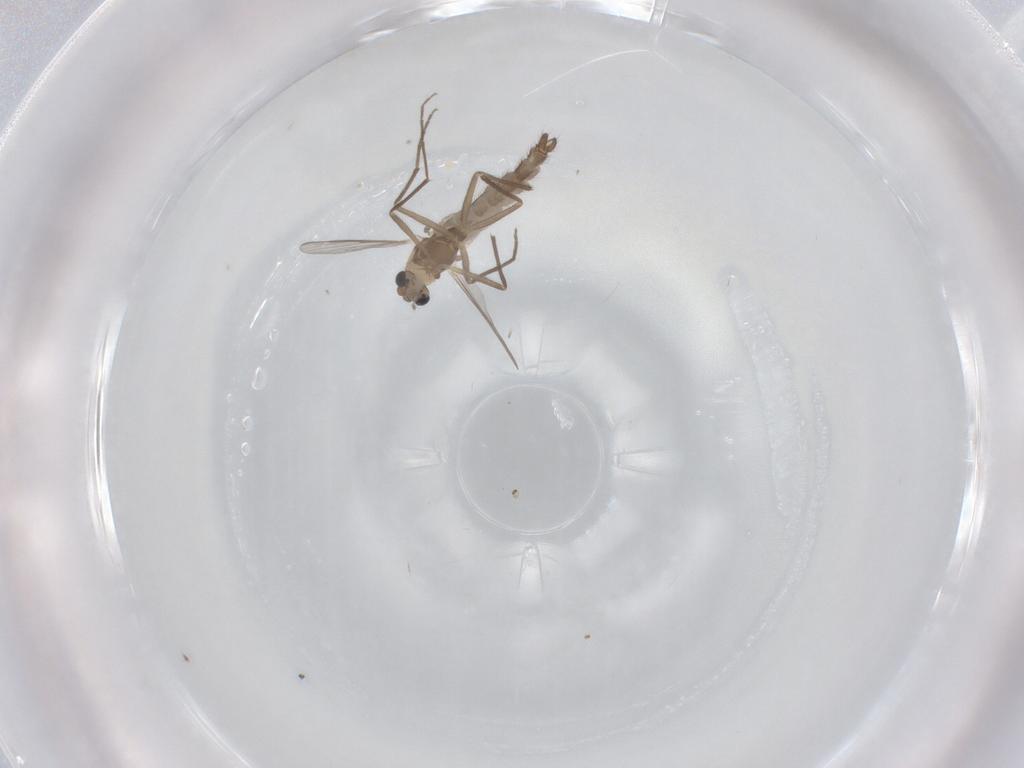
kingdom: Animalia
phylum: Arthropoda
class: Insecta
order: Diptera
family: Chironomidae
